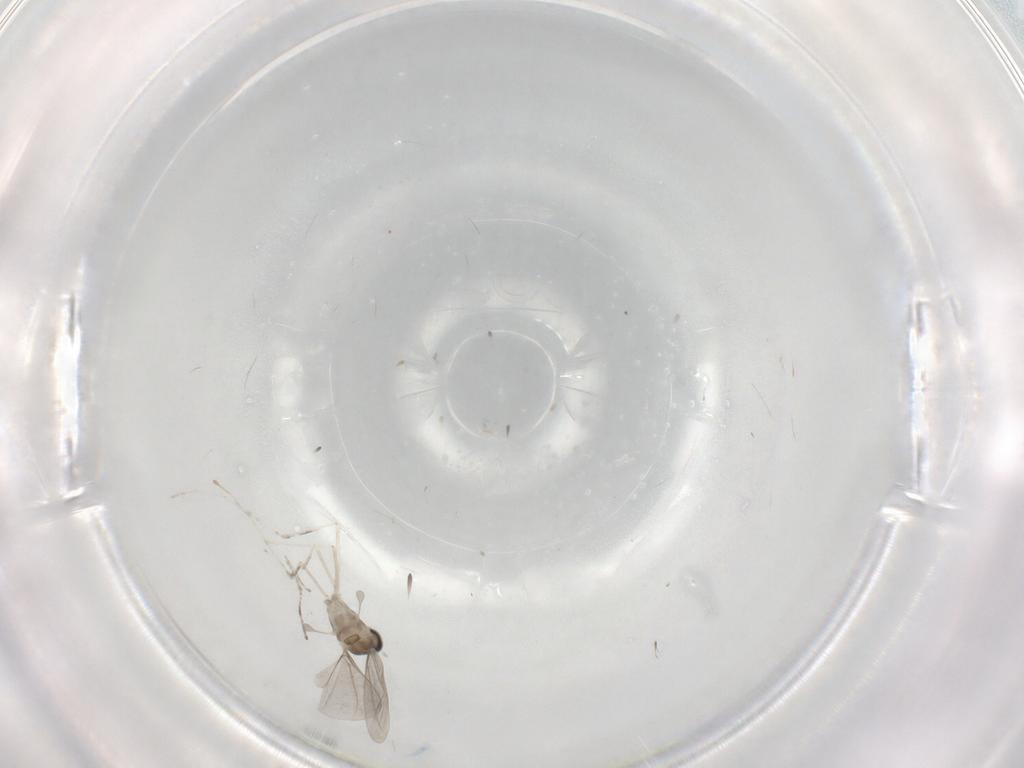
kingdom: Animalia
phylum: Arthropoda
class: Insecta
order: Diptera
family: Cecidomyiidae
